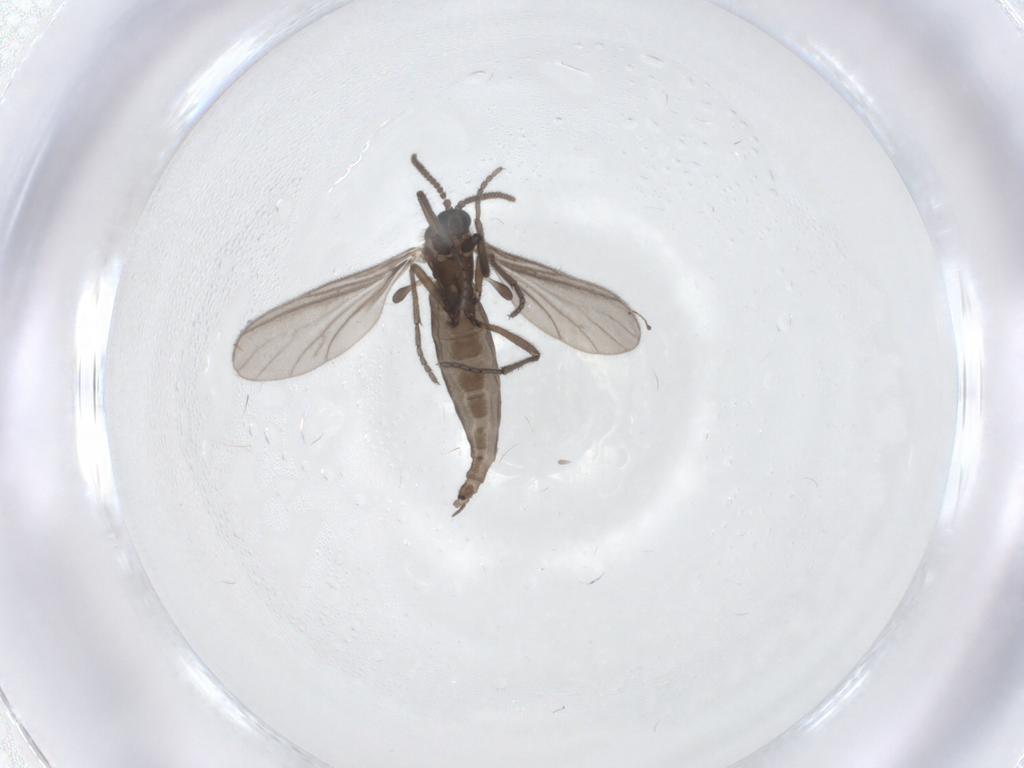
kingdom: Animalia
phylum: Arthropoda
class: Insecta
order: Diptera
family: Sciaridae
